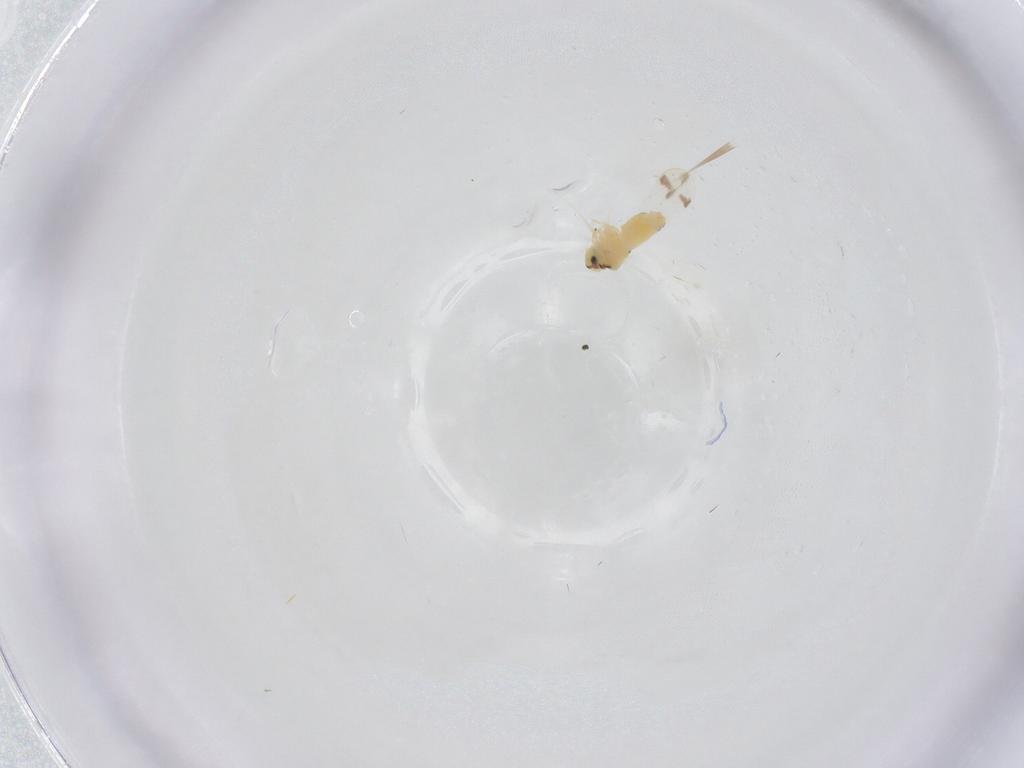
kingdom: Animalia
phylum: Arthropoda
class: Insecta
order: Hemiptera
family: Aleyrodidae
